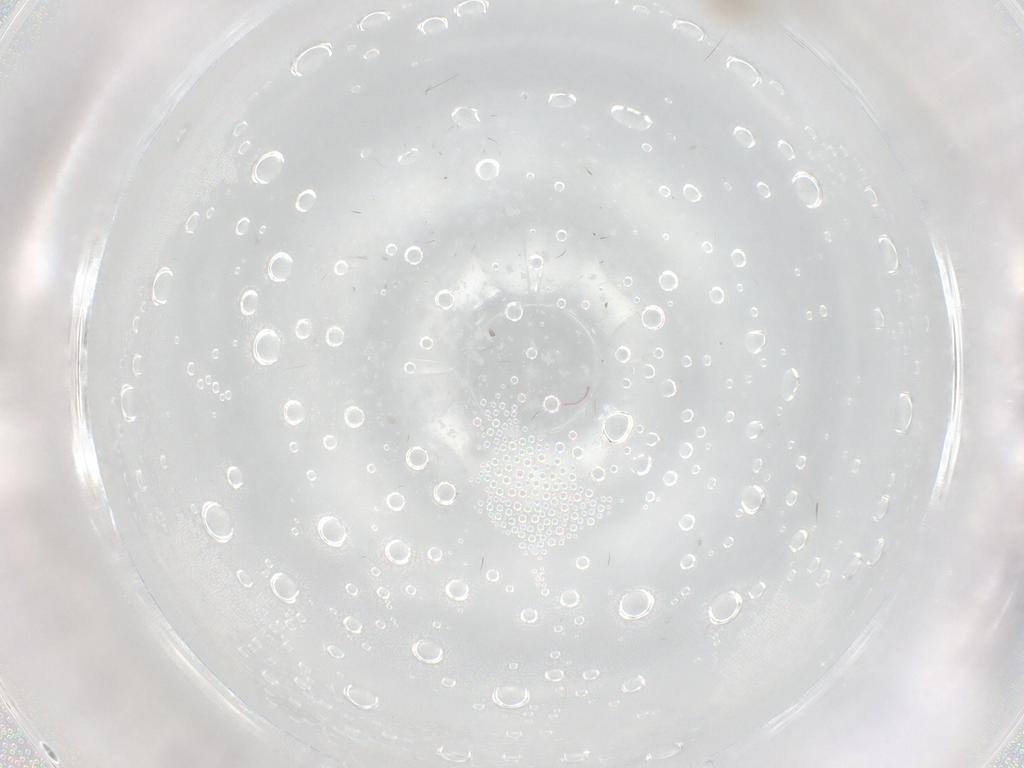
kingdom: Animalia
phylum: Arthropoda
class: Insecta
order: Diptera
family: Cecidomyiidae
